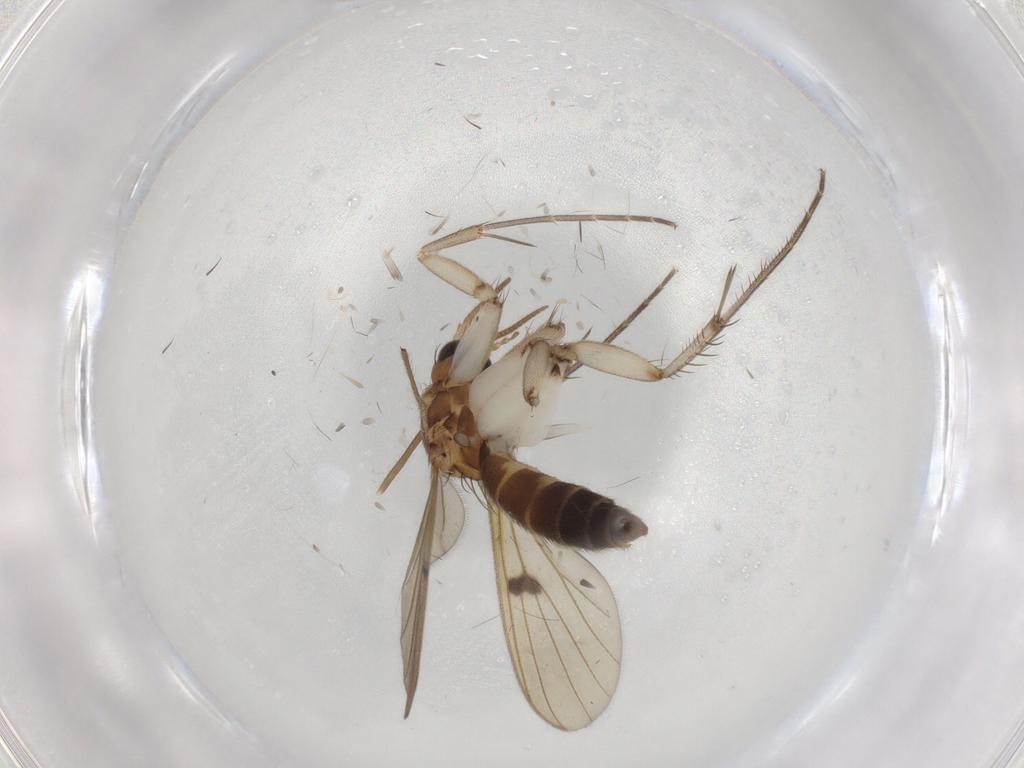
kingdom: Animalia
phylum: Arthropoda
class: Insecta
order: Diptera
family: Mycetophilidae
